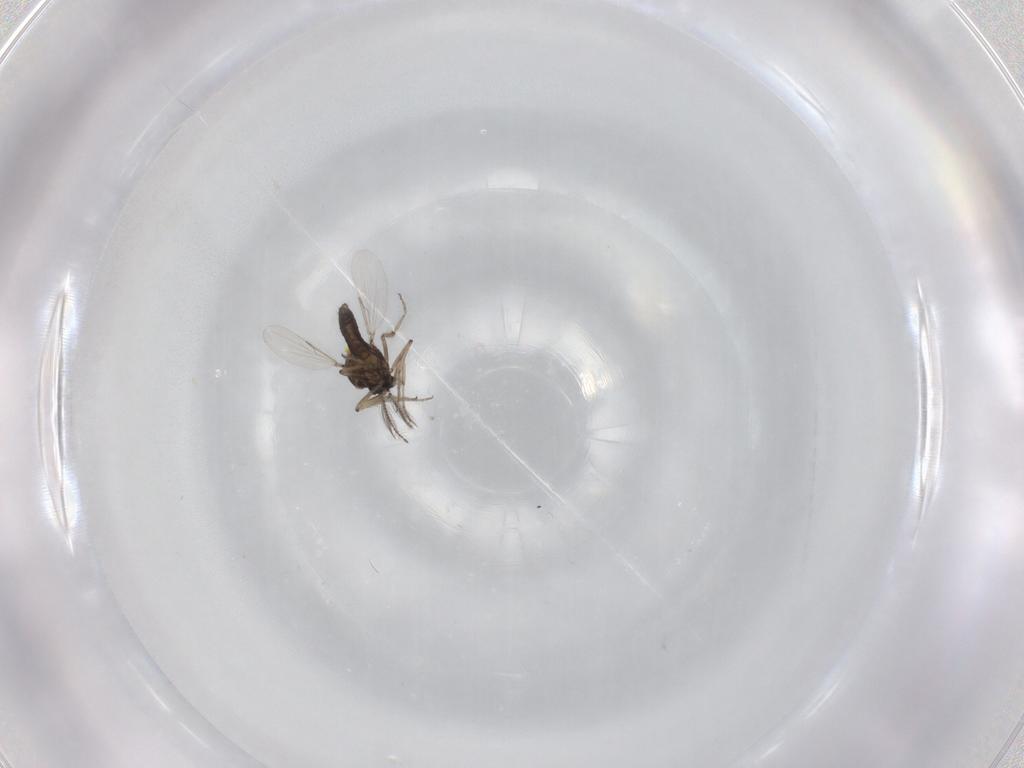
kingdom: Animalia
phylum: Arthropoda
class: Insecta
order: Diptera
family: Ceratopogonidae
